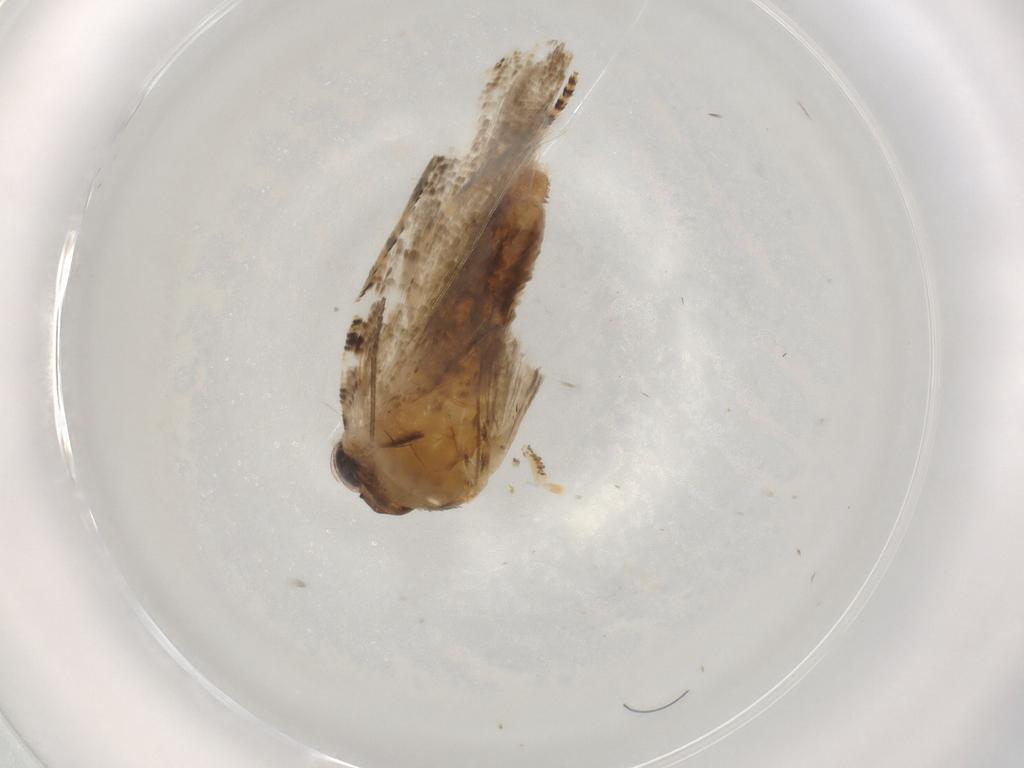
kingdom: Animalia
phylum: Arthropoda
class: Insecta
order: Lepidoptera
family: Tortricidae
